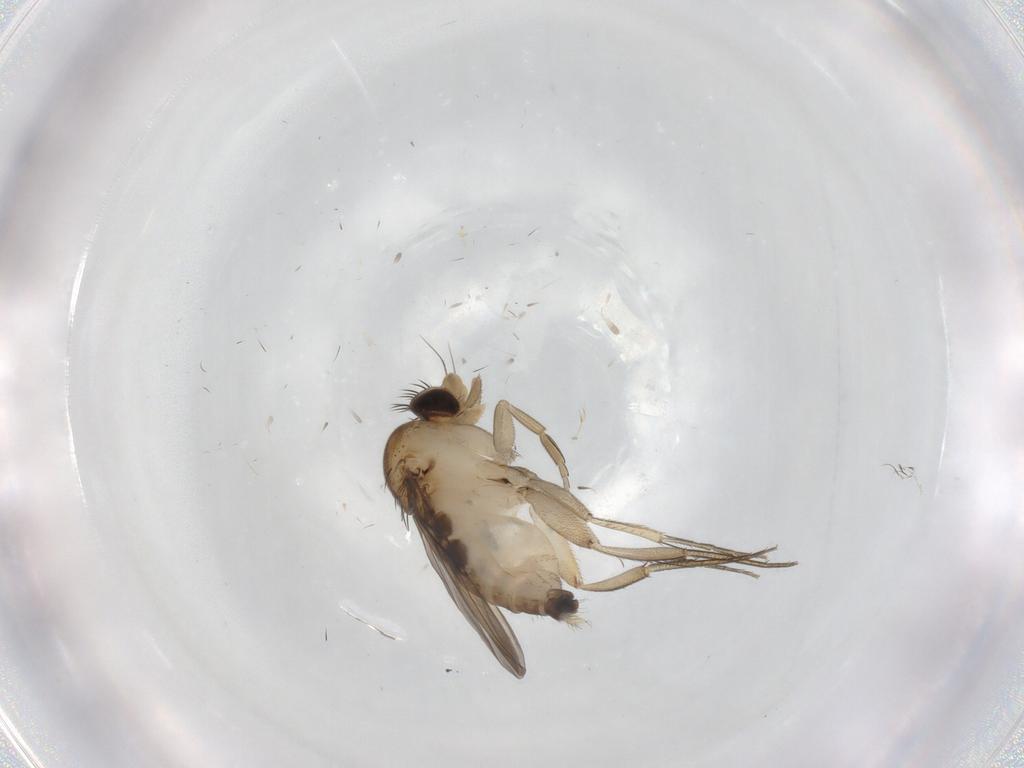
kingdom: Animalia
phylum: Arthropoda
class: Insecta
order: Diptera
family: Phoridae
